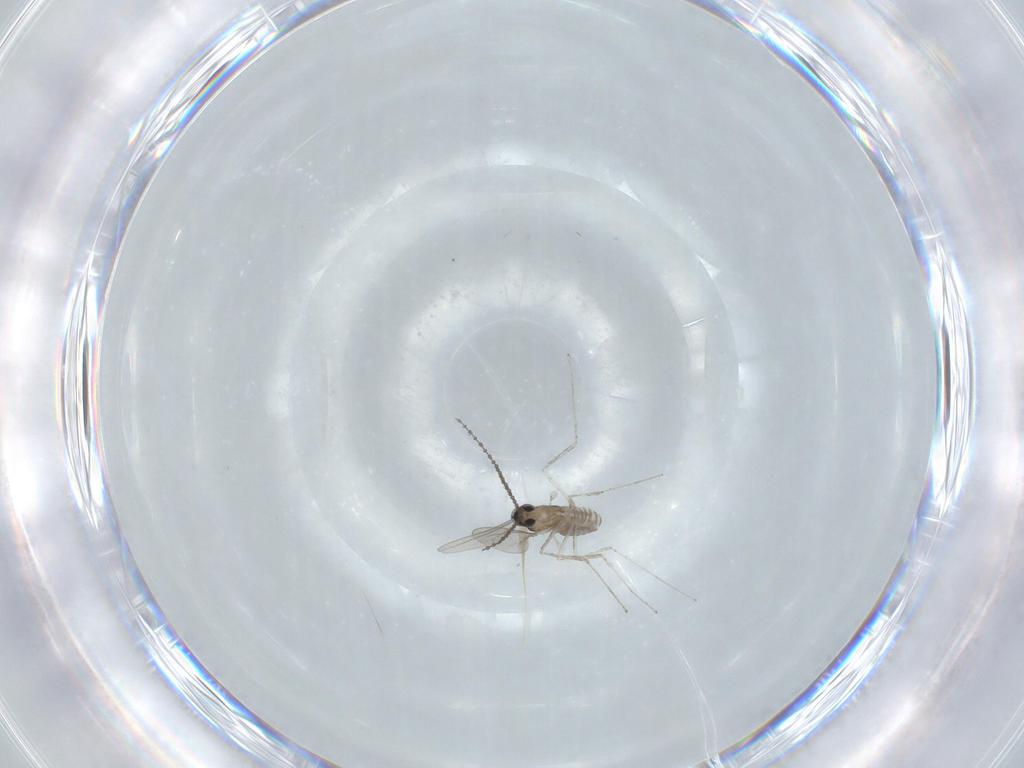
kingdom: Animalia
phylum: Arthropoda
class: Insecta
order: Diptera
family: Cecidomyiidae
